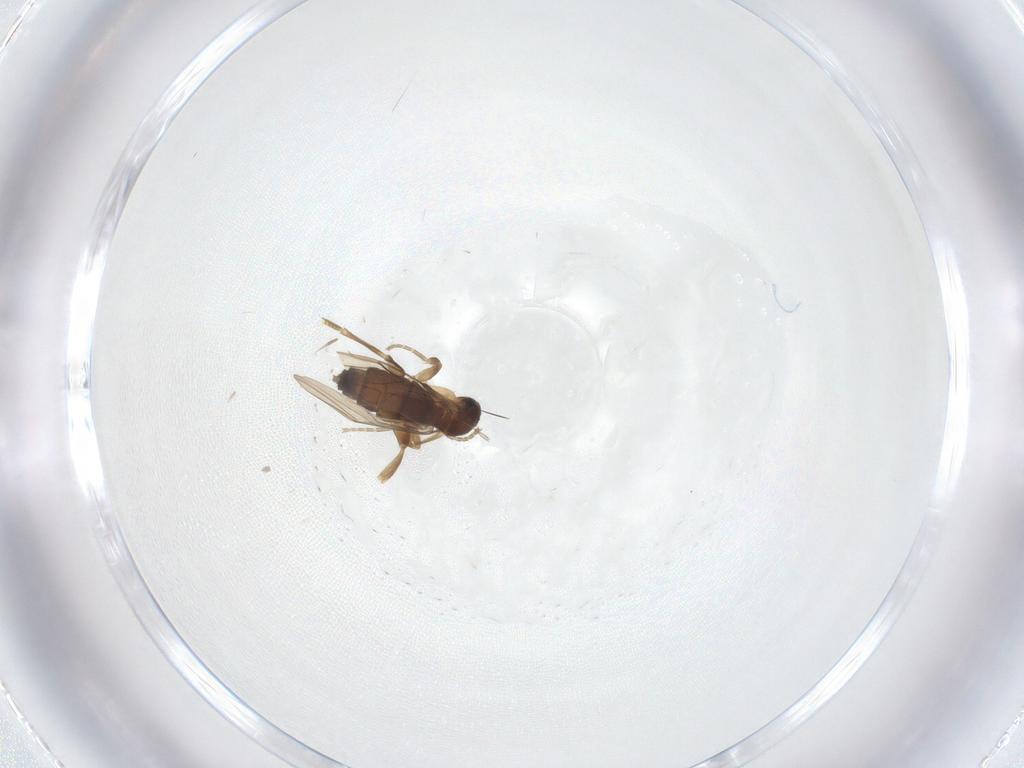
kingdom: Animalia
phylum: Arthropoda
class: Insecta
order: Diptera
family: Phoridae
